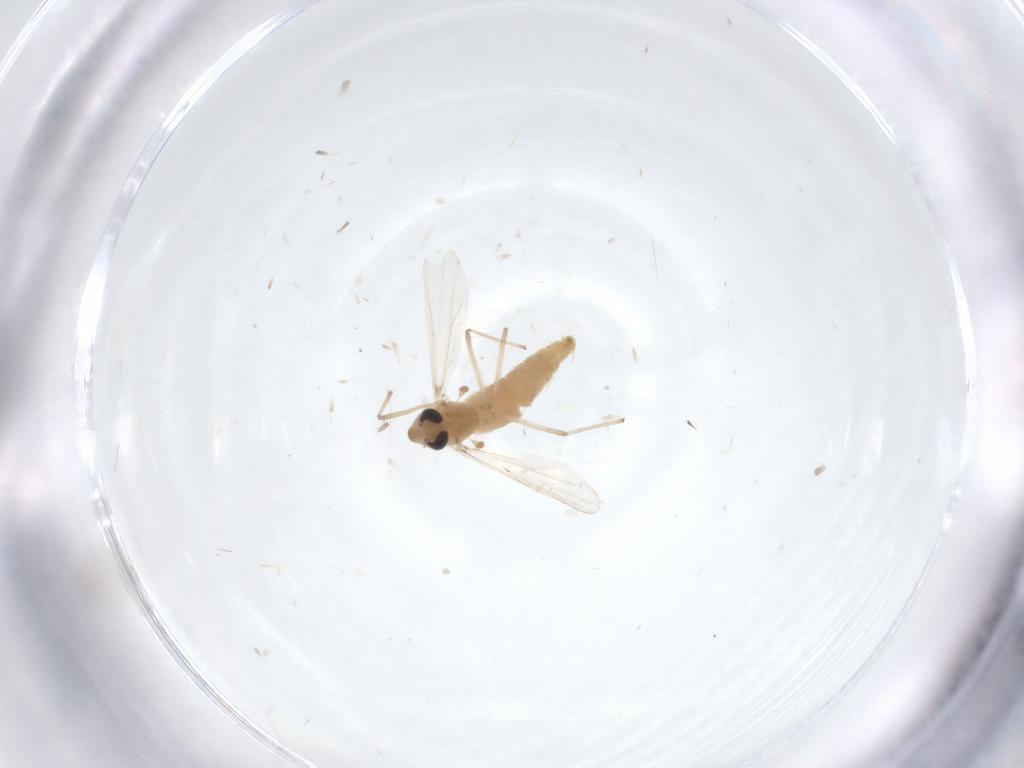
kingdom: Animalia
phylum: Arthropoda
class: Insecta
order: Diptera
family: Chironomidae
